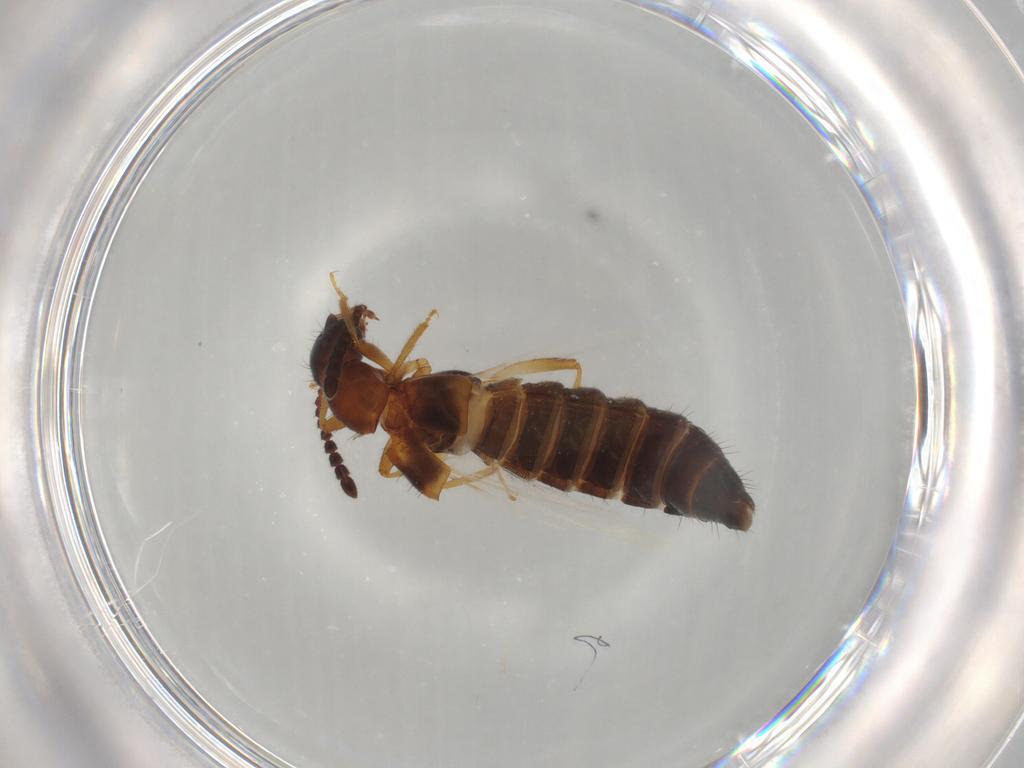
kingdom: Animalia
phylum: Arthropoda
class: Insecta
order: Coleoptera
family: Staphylinidae
